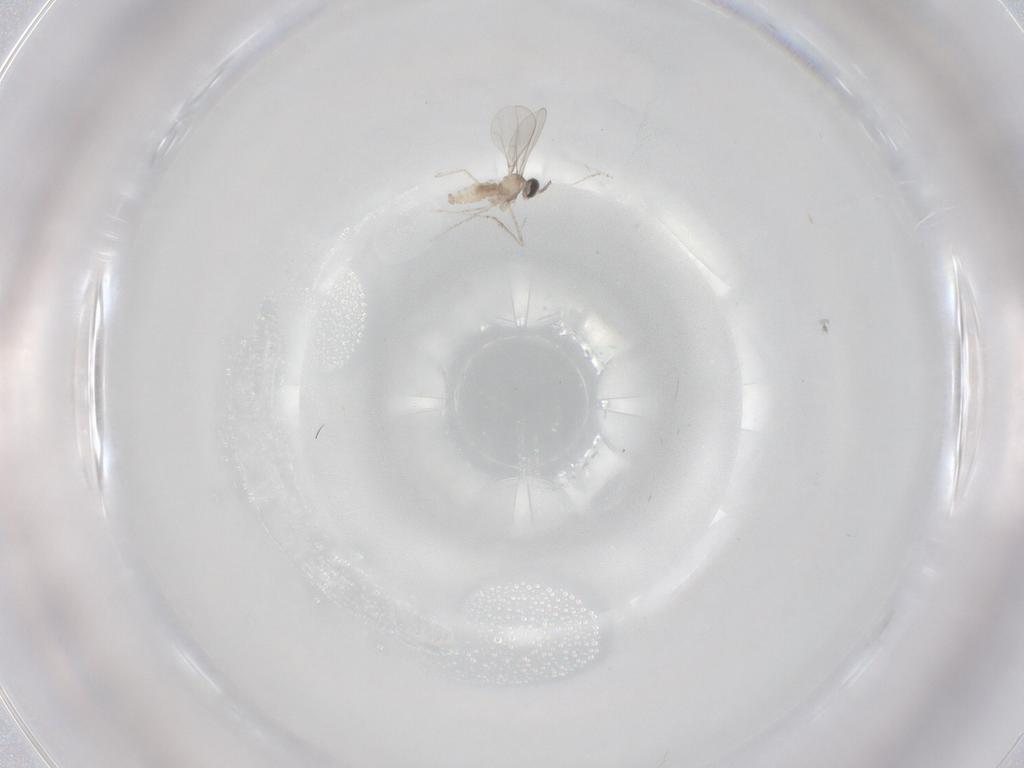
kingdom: Animalia
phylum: Arthropoda
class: Insecta
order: Diptera
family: Cecidomyiidae
